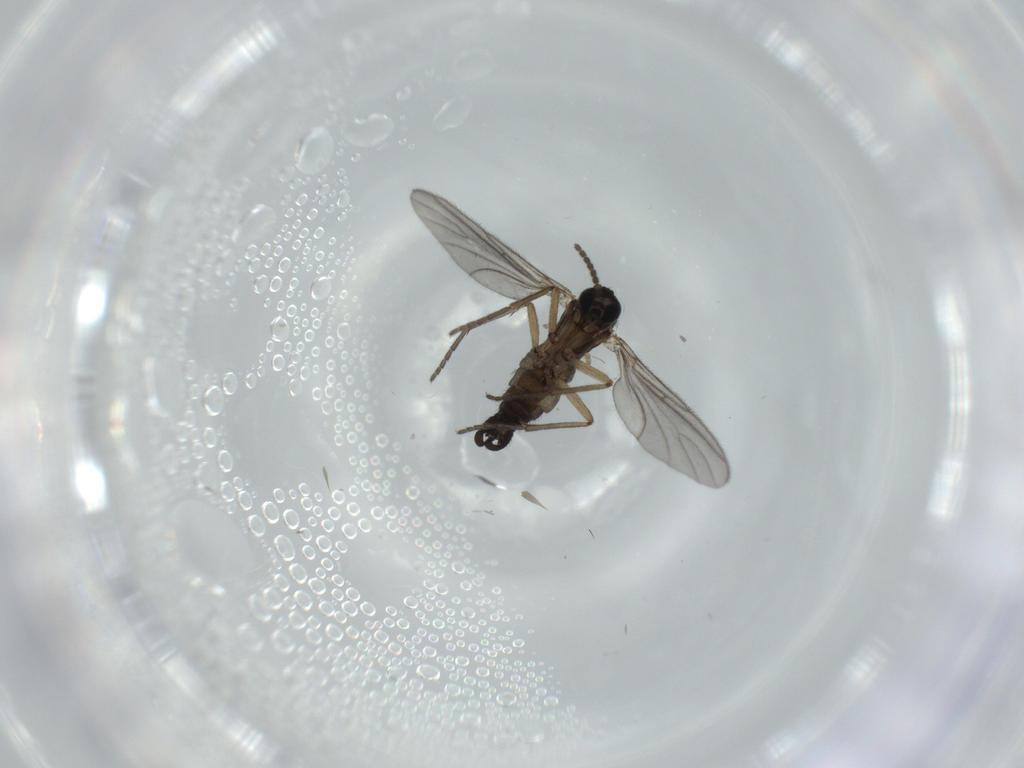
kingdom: Animalia
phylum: Arthropoda
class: Insecta
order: Diptera
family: Sciaridae
